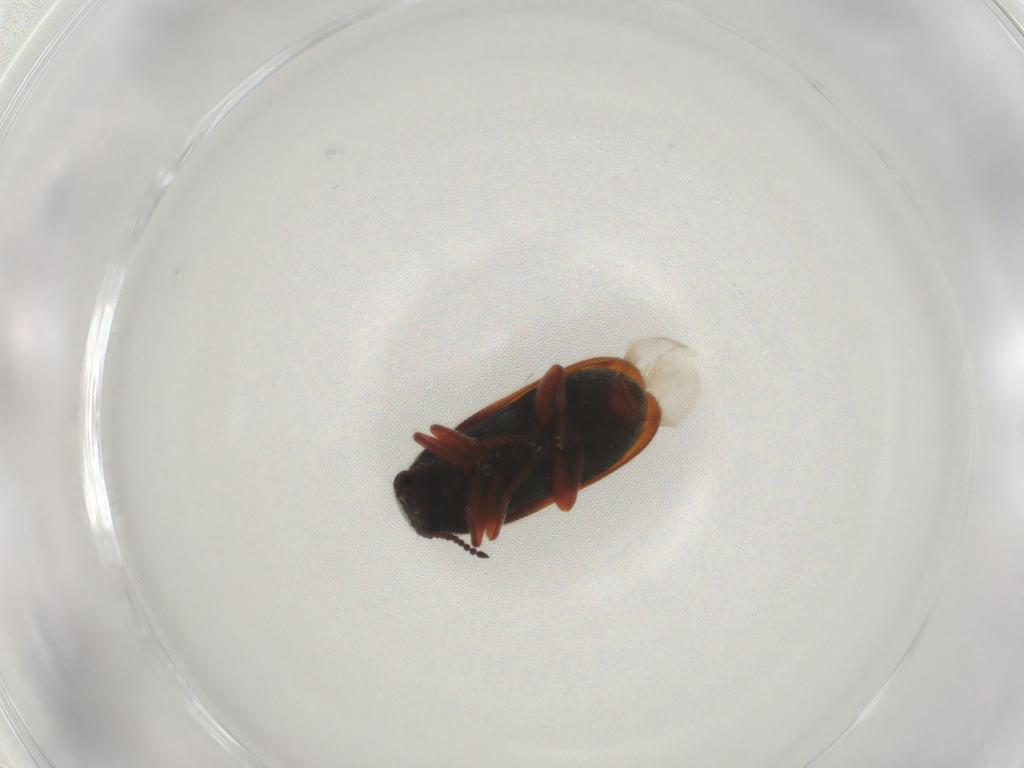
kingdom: Animalia
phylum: Arthropoda
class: Insecta
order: Coleoptera
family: Melyridae
